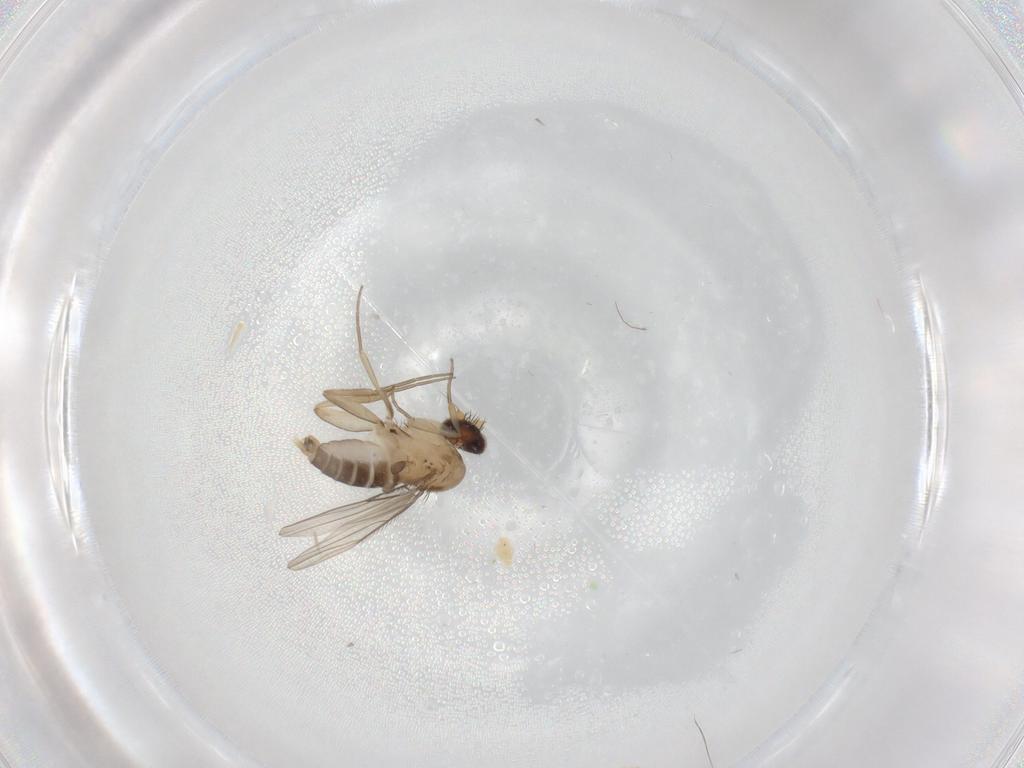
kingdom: Animalia
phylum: Arthropoda
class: Insecta
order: Diptera
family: Phoridae
